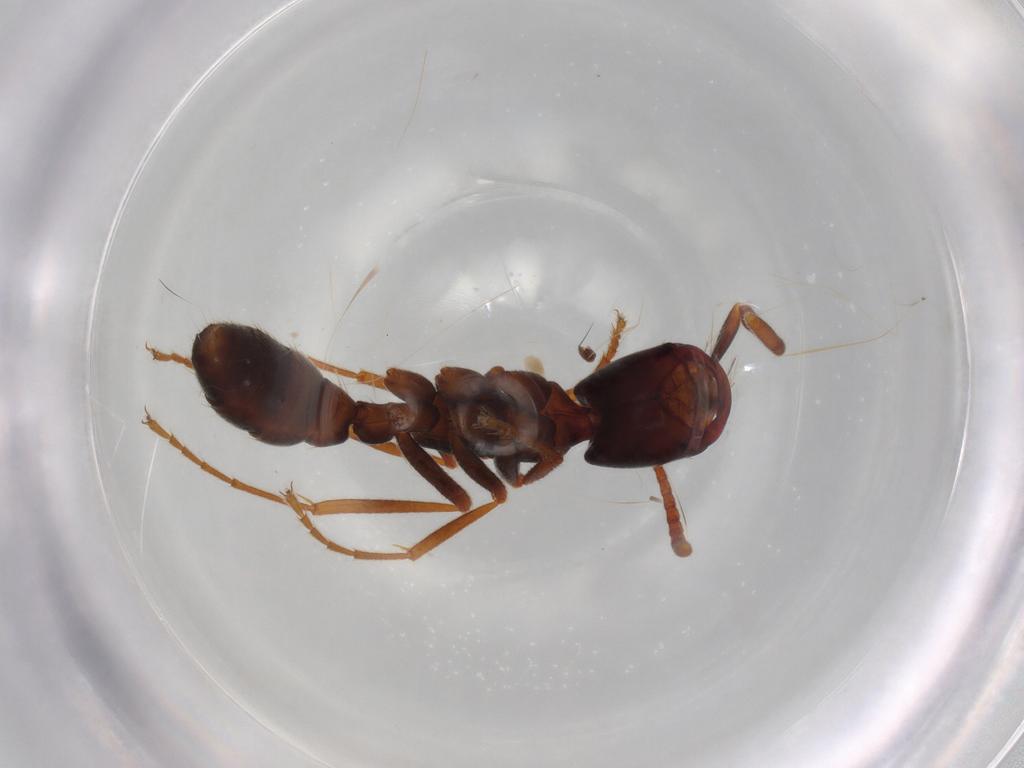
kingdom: Animalia
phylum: Arthropoda
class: Insecta
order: Hymenoptera
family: Formicidae
